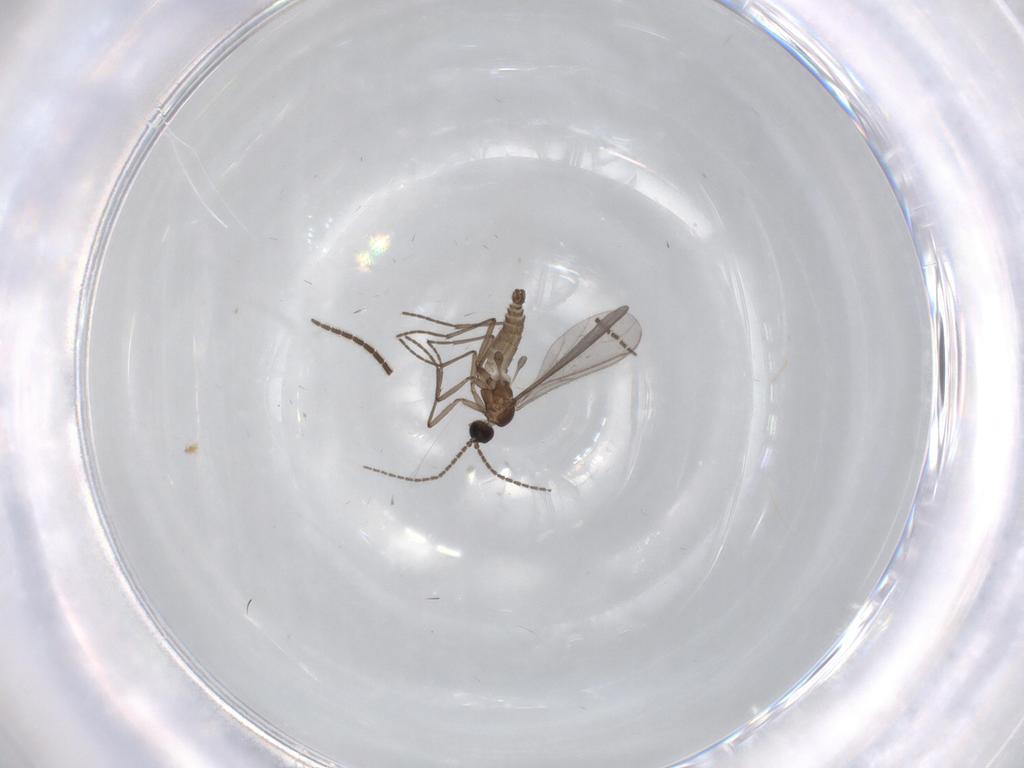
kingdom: Animalia
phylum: Arthropoda
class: Insecta
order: Diptera
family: Sciaridae
